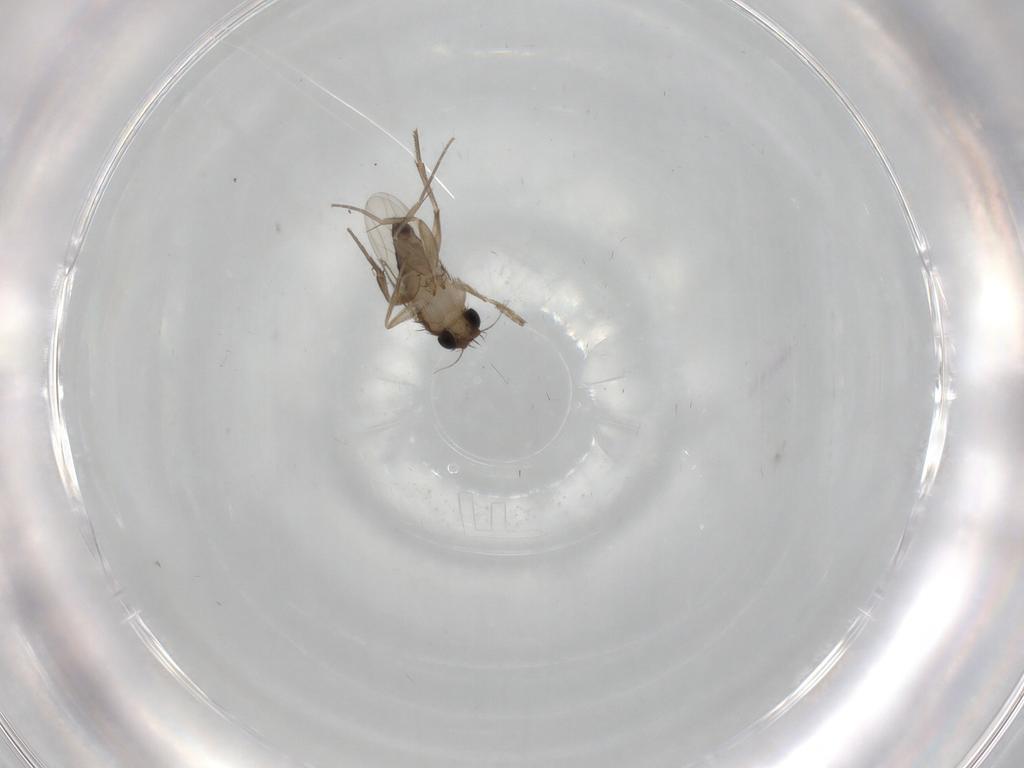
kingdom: Animalia
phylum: Arthropoda
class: Insecta
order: Diptera
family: Phoridae
